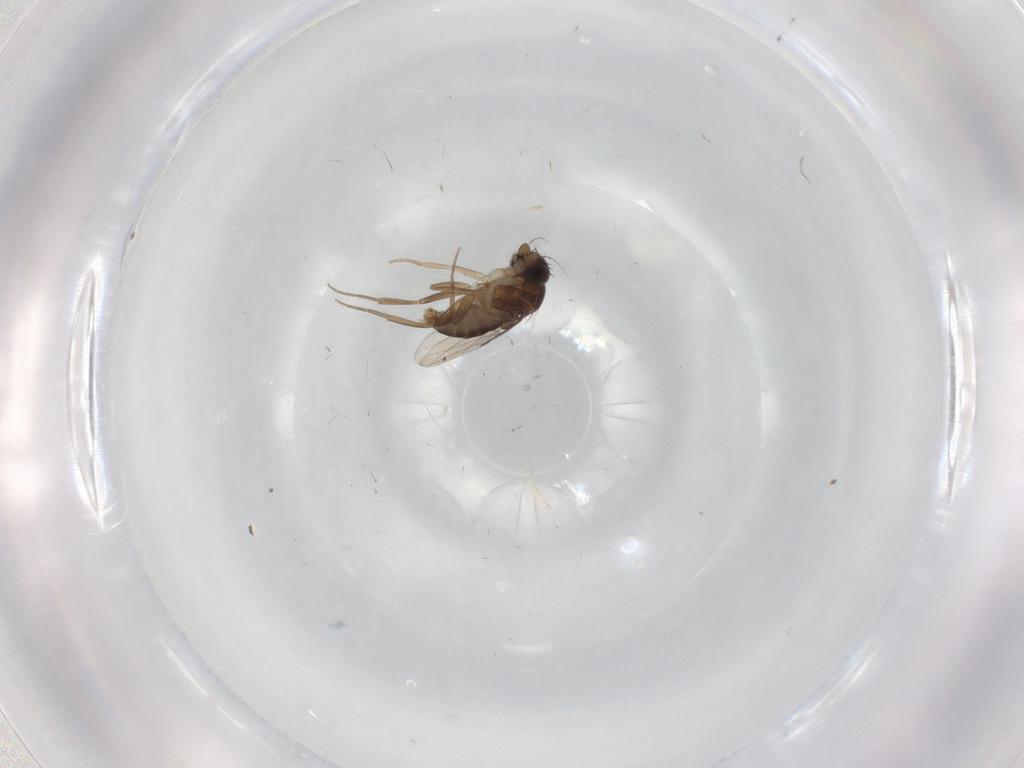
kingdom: Animalia
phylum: Arthropoda
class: Insecta
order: Diptera
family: Phoridae
